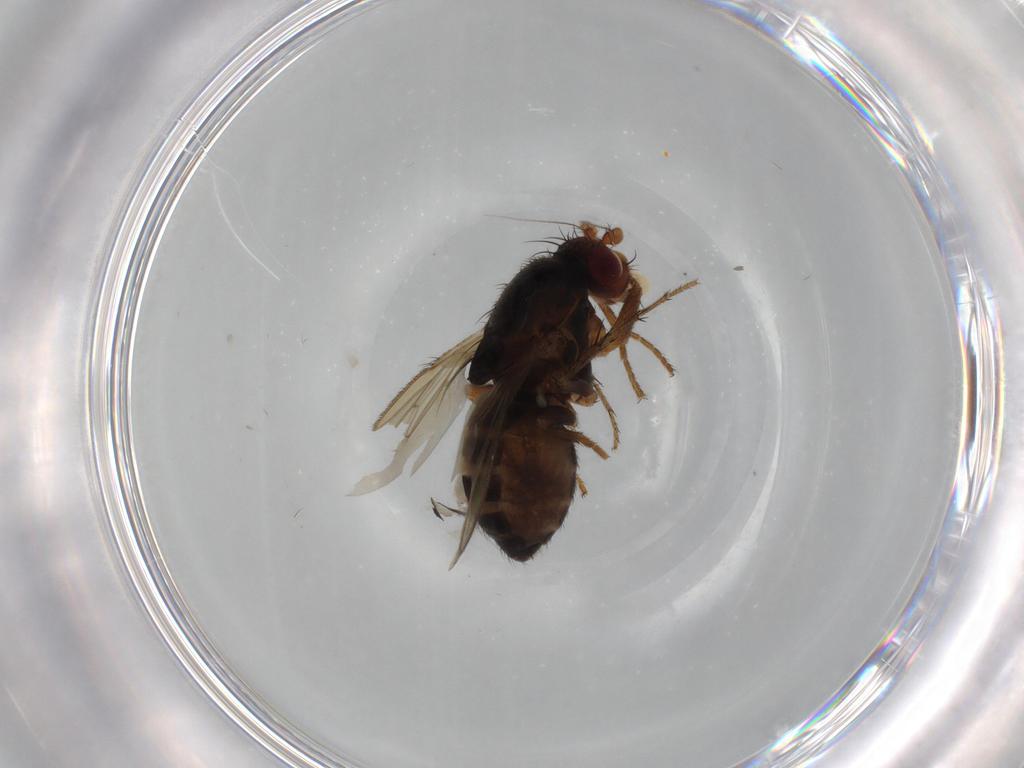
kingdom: Animalia
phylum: Arthropoda
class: Insecta
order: Diptera
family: Sphaeroceridae
